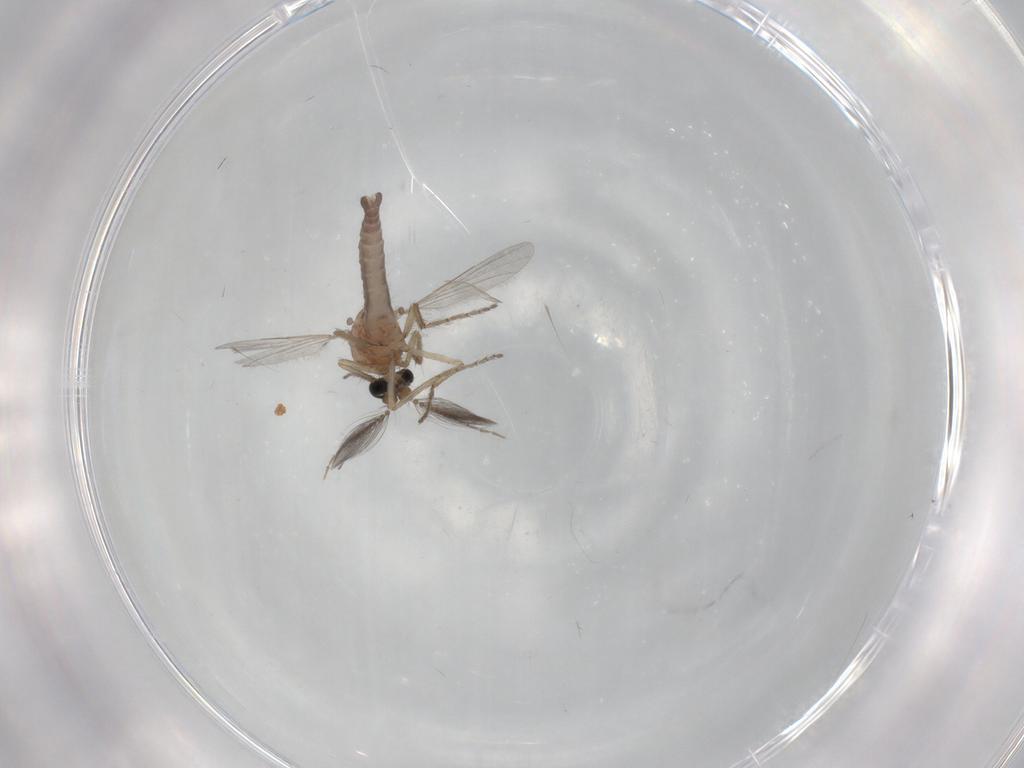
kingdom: Animalia
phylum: Arthropoda
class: Insecta
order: Diptera
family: Ceratopogonidae
